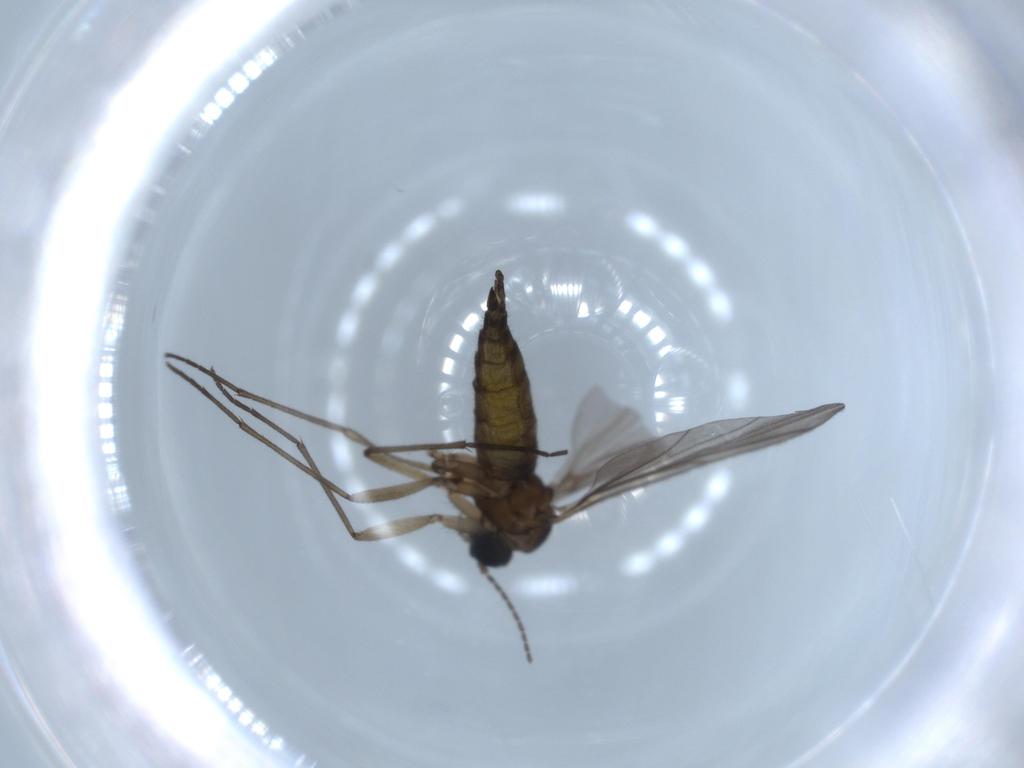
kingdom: Animalia
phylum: Arthropoda
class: Insecta
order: Diptera
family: Sciaridae
